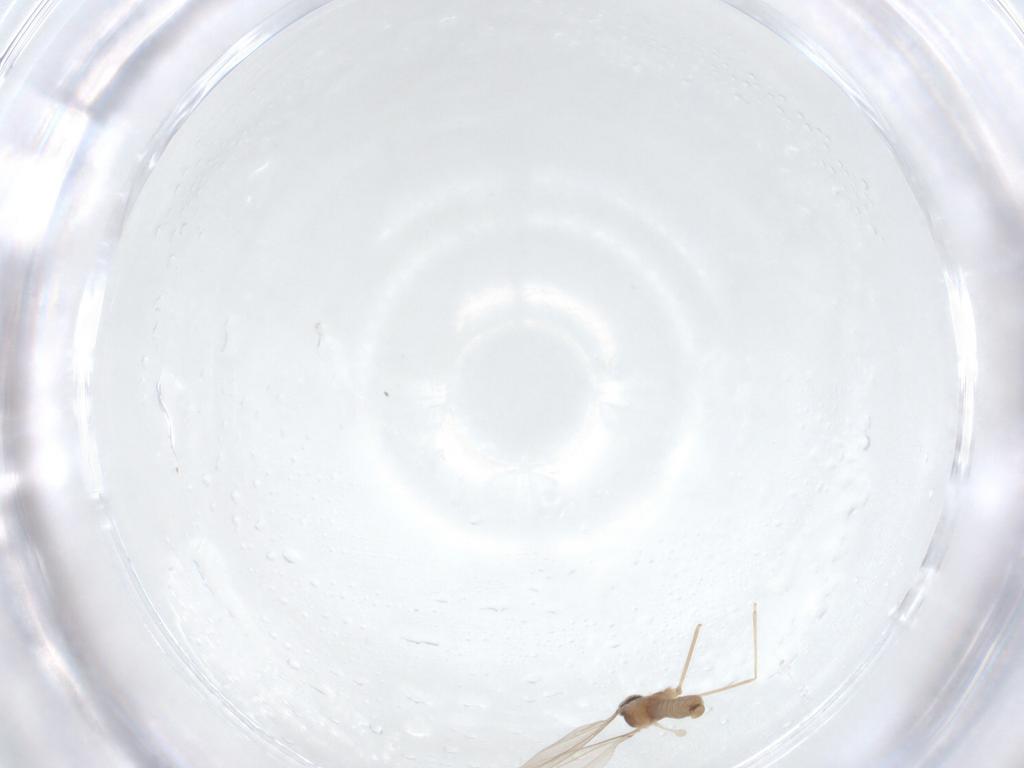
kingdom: Animalia
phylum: Arthropoda
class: Insecta
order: Diptera
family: Cecidomyiidae
